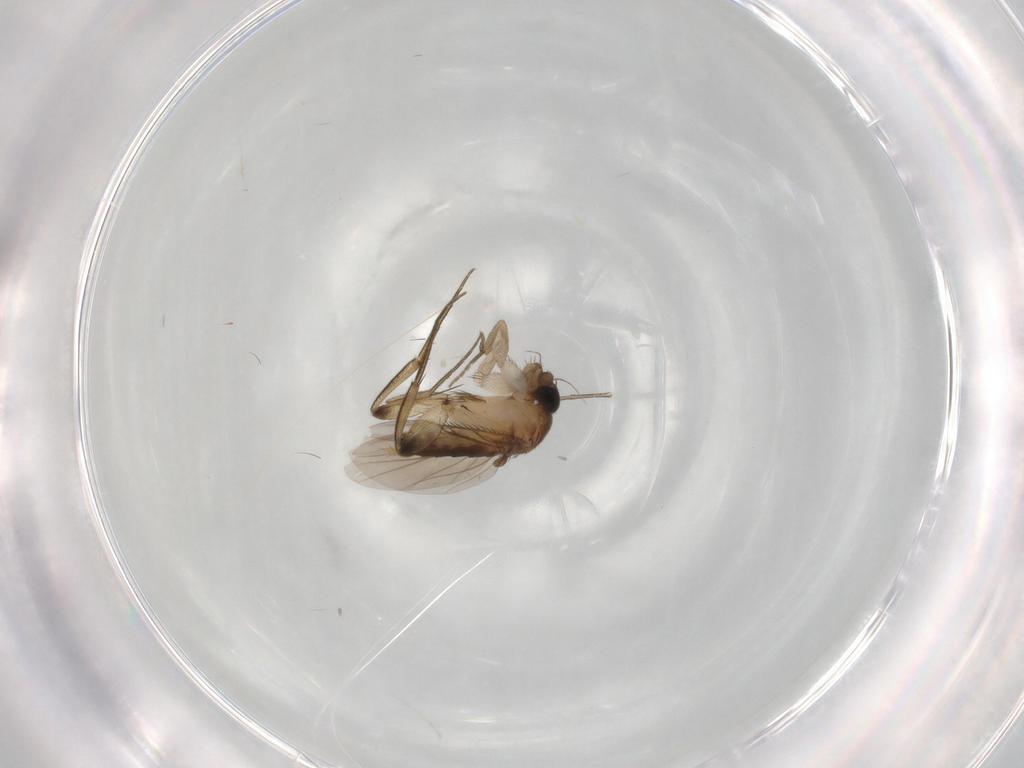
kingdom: Animalia
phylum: Arthropoda
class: Insecta
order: Diptera
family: Phoridae
